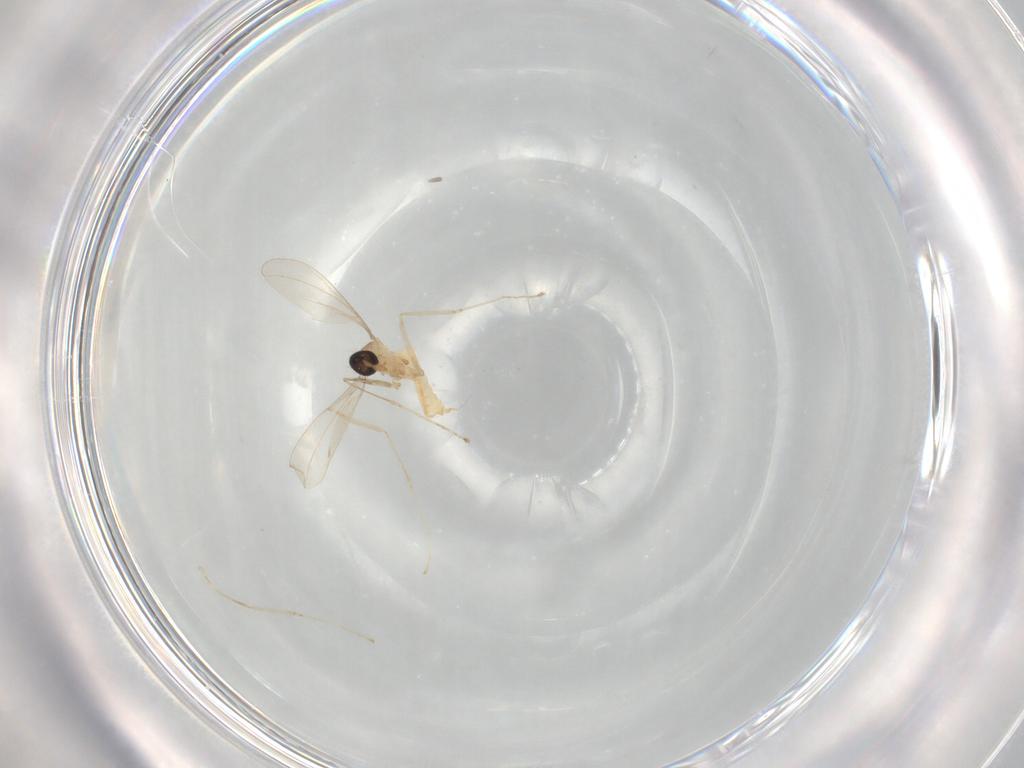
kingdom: Animalia
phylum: Arthropoda
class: Insecta
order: Diptera
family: Cecidomyiidae
